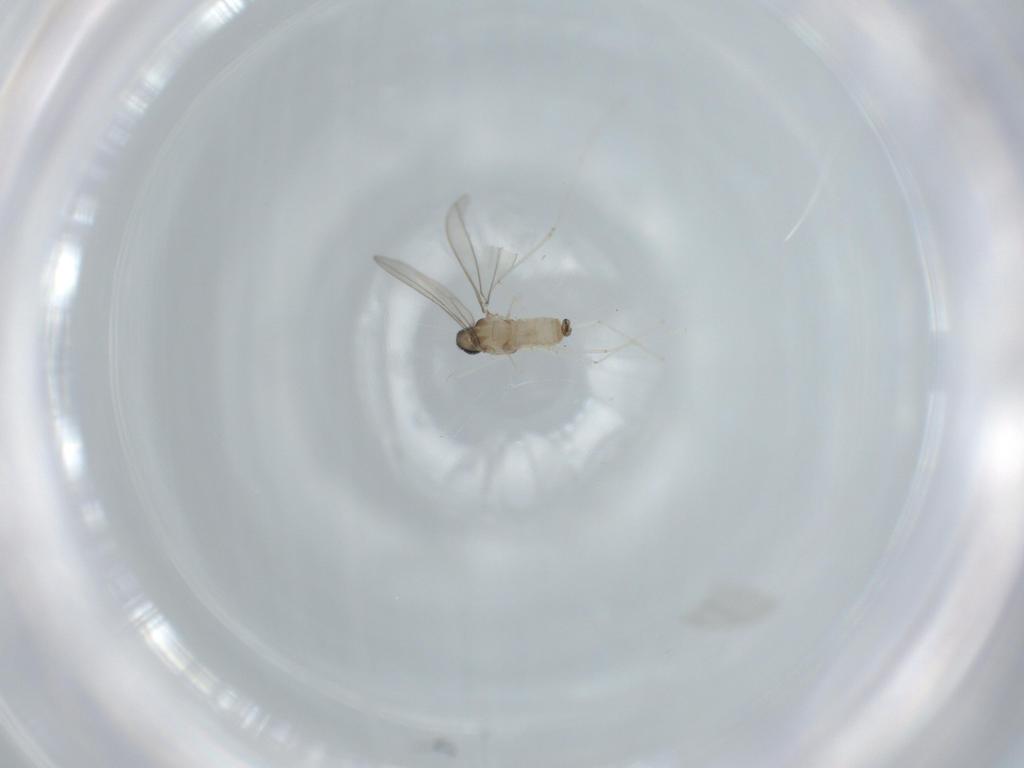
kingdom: Animalia
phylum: Arthropoda
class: Insecta
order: Diptera
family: Cecidomyiidae
